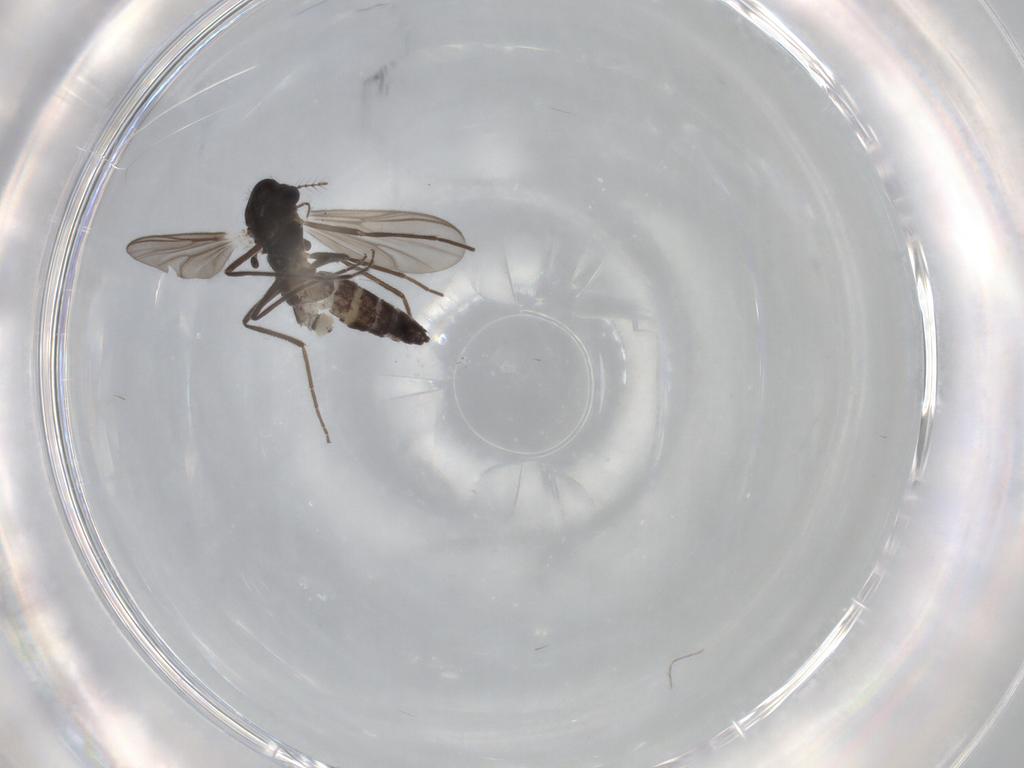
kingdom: Animalia
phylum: Arthropoda
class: Insecta
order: Diptera
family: Chironomidae
